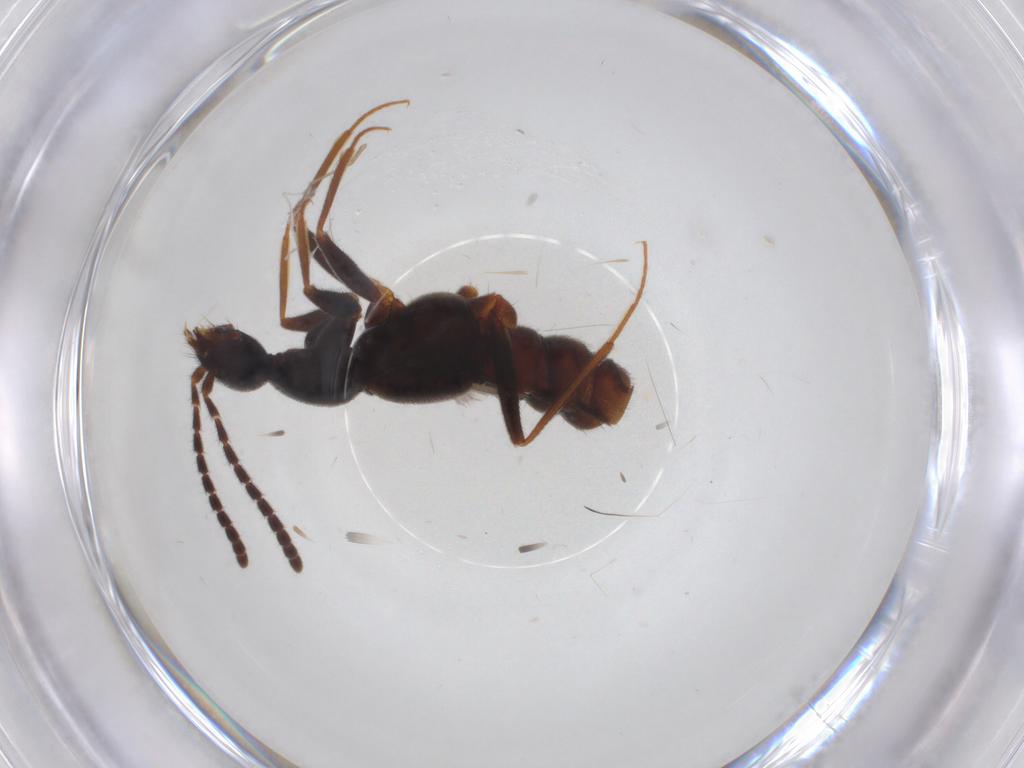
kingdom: Animalia
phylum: Arthropoda
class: Insecta
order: Coleoptera
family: Staphylinidae
